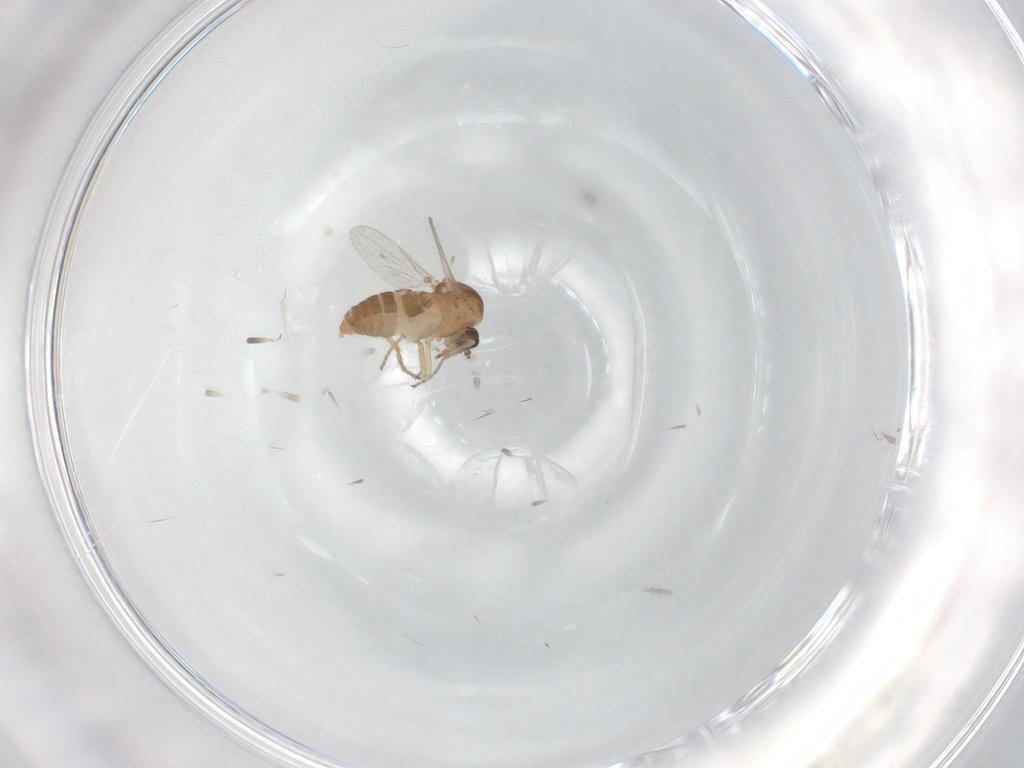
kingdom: Animalia
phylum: Arthropoda
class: Insecta
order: Diptera
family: Ceratopogonidae
